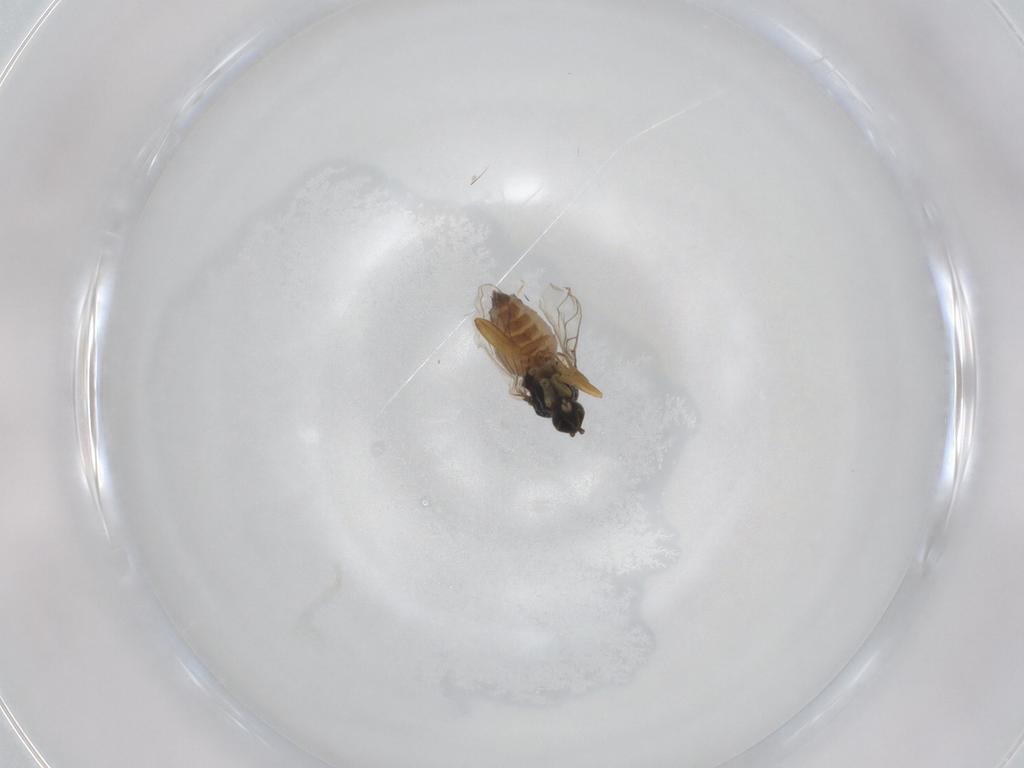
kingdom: Animalia
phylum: Arthropoda
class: Insecta
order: Diptera
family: Hybotidae
